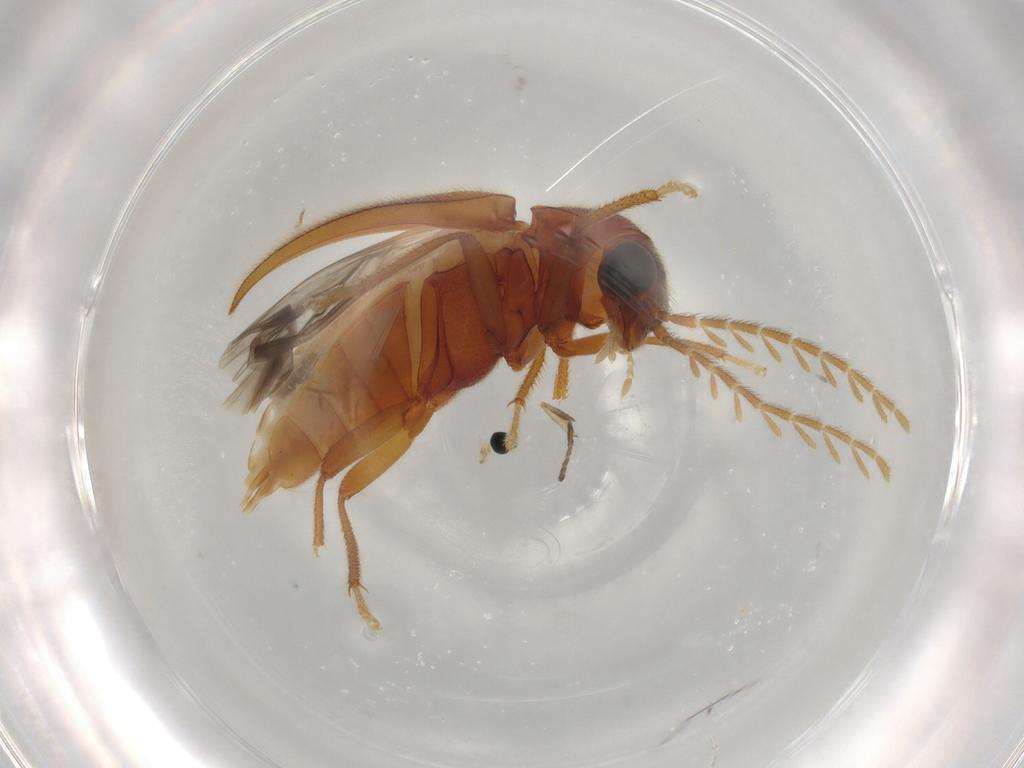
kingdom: Animalia
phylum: Arthropoda
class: Insecta
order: Coleoptera
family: Ptilodactylidae
